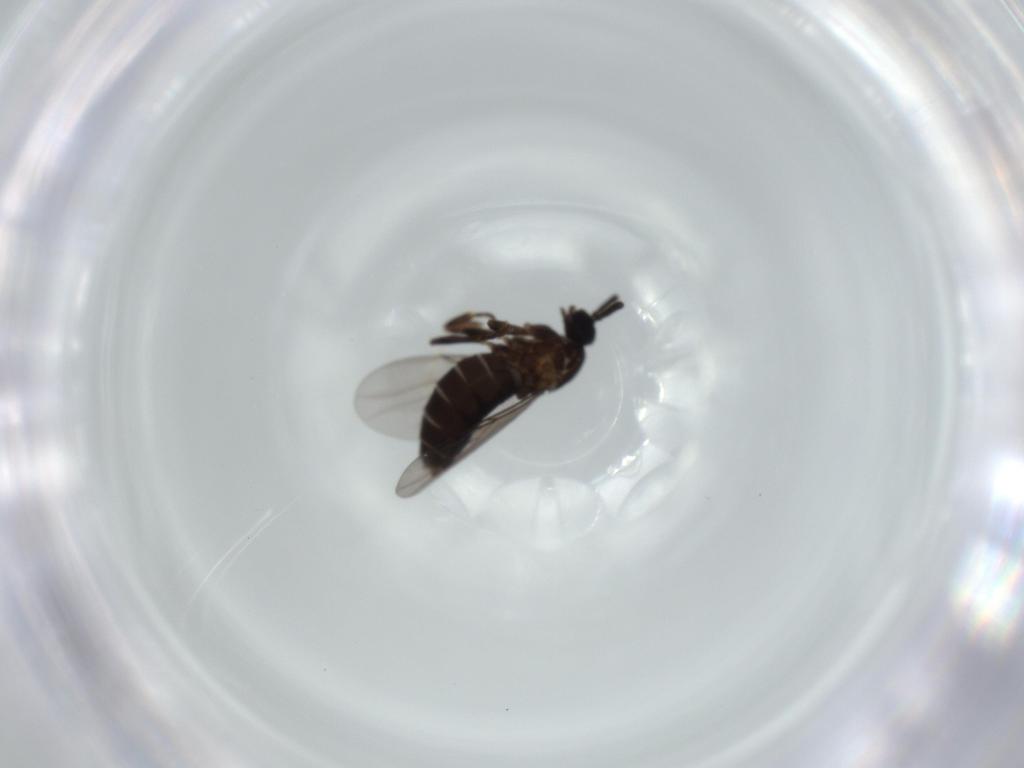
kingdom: Animalia
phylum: Arthropoda
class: Insecta
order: Diptera
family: Scatopsidae
